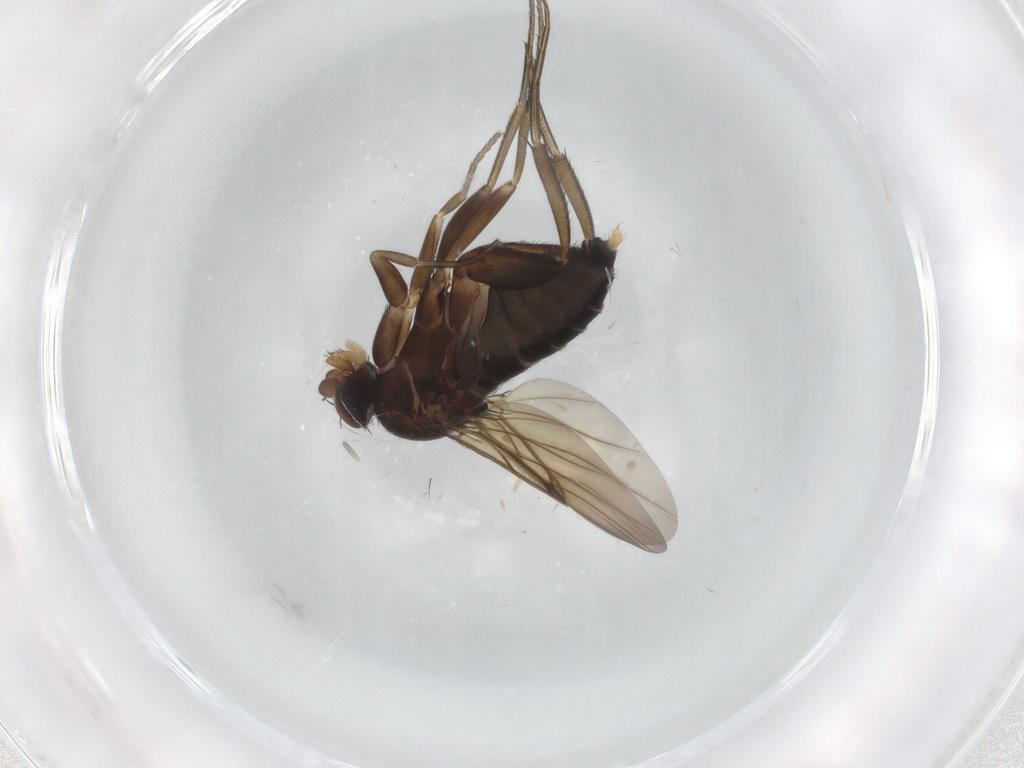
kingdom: Animalia
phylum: Arthropoda
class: Insecta
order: Diptera
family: Phoridae
